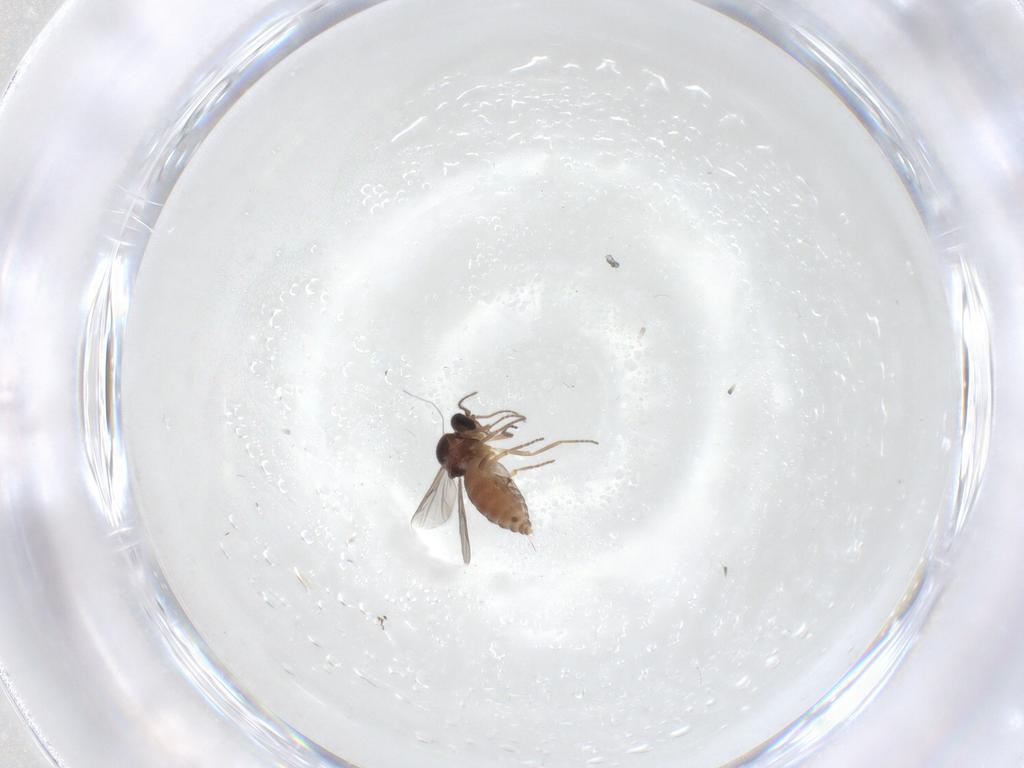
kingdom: Animalia
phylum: Arthropoda
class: Insecta
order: Diptera
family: Ceratopogonidae
